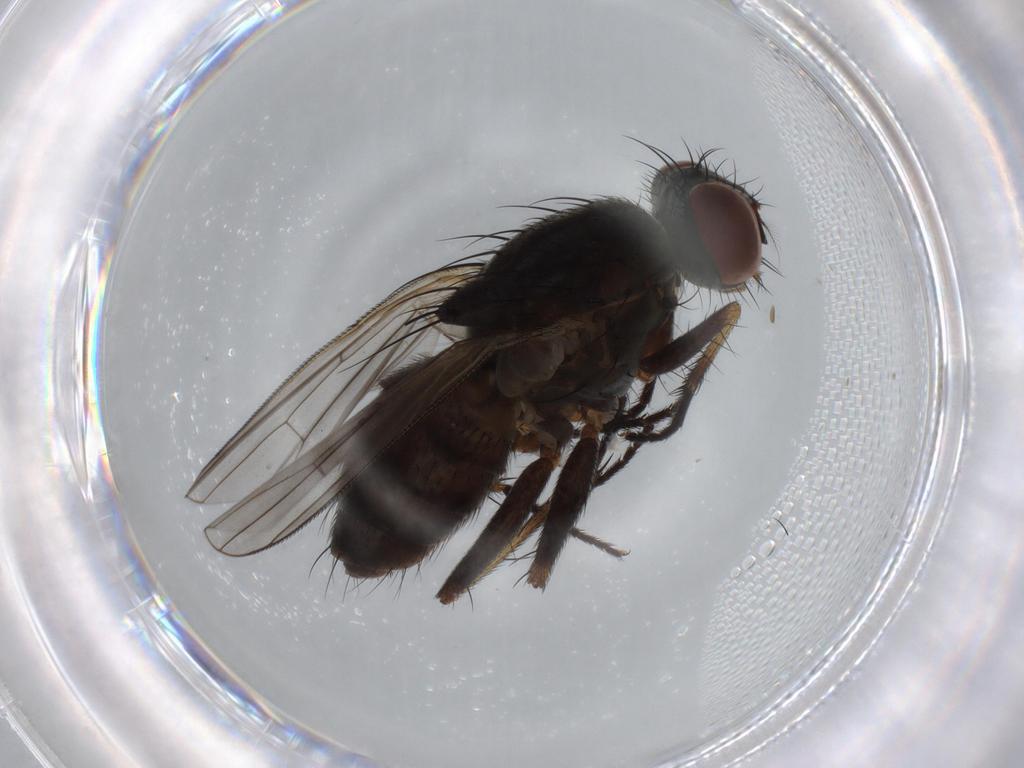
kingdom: Animalia
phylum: Arthropoda
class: Insecta
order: Diptera
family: Muscidae
